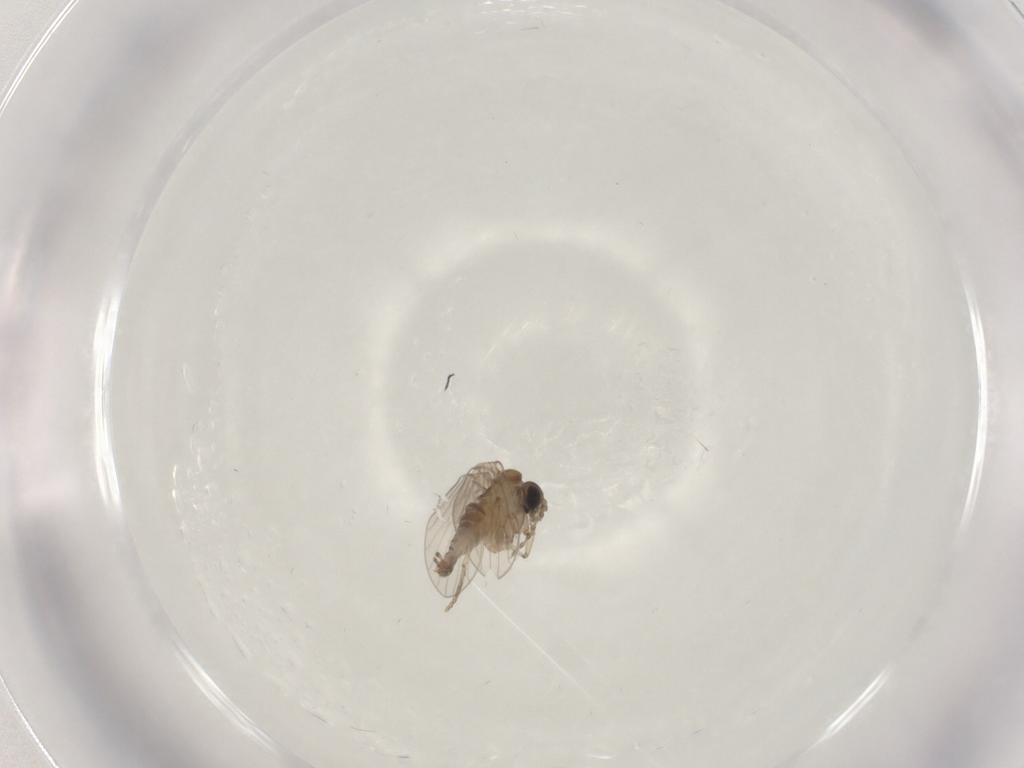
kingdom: Animalia
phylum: Arthropoda
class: Insecta
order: Diptera
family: Psychodidae
